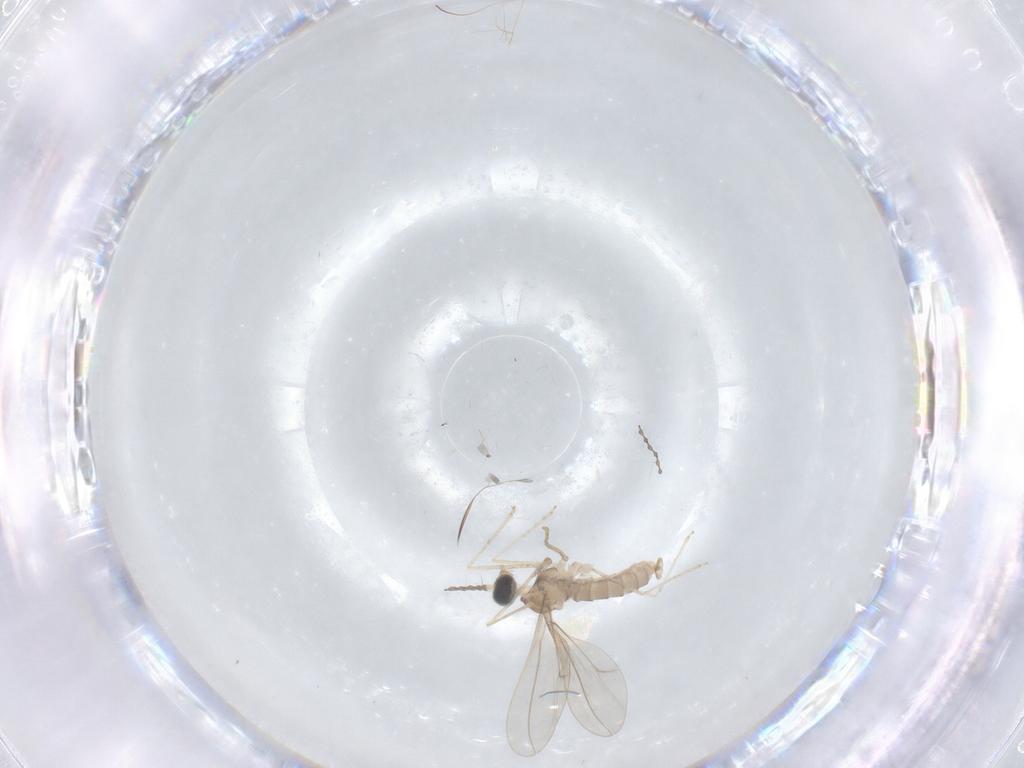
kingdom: Animalia
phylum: Arthropoda
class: Insecta
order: Diptera
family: Cecidomyiidae
